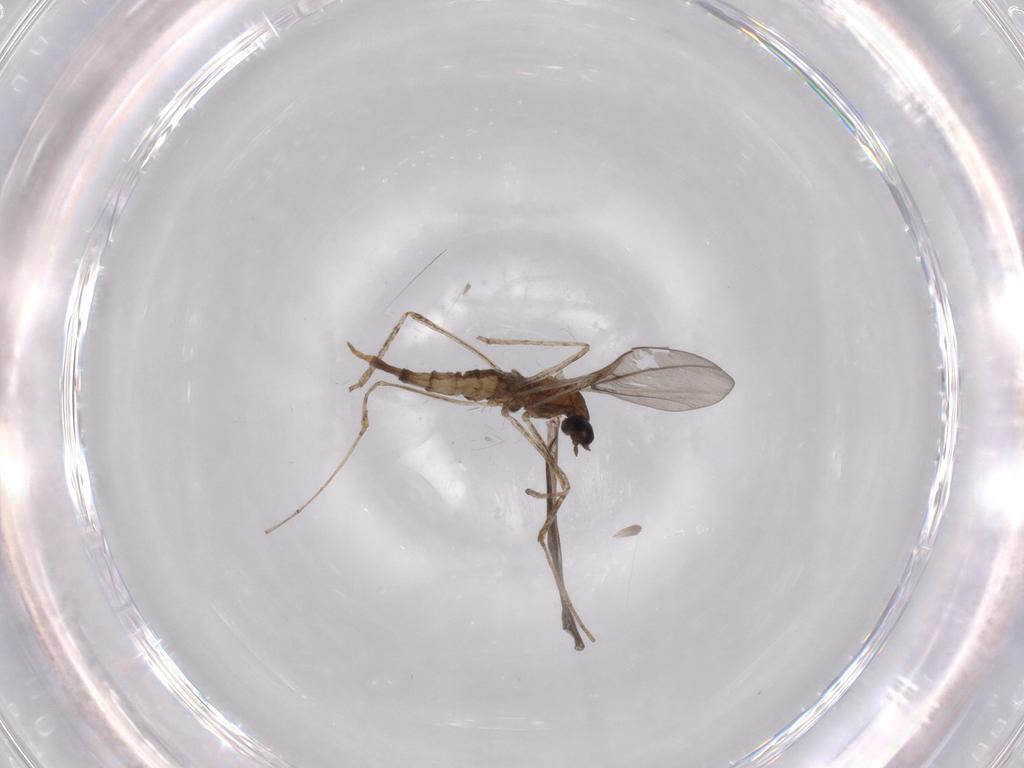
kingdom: Animalia
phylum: Arthropoda
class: Insecta
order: Diptera
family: Cecidomyiidae
